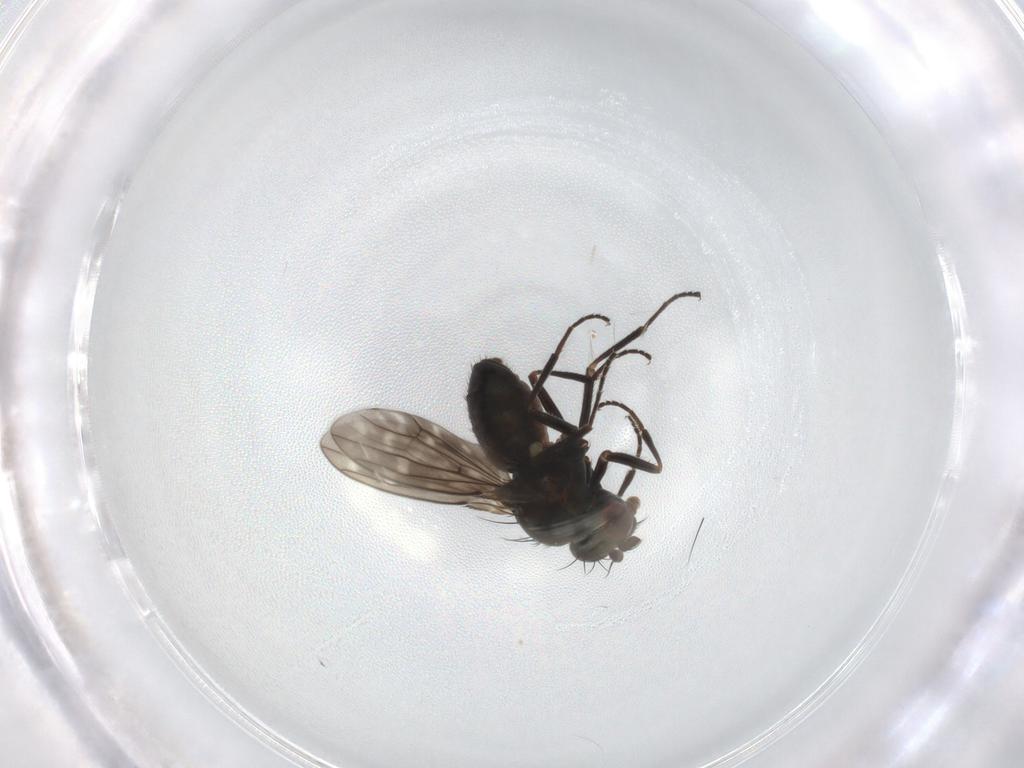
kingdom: Animalia
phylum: Arthropoda
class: Insecta
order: Diptera
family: Ephydridae
